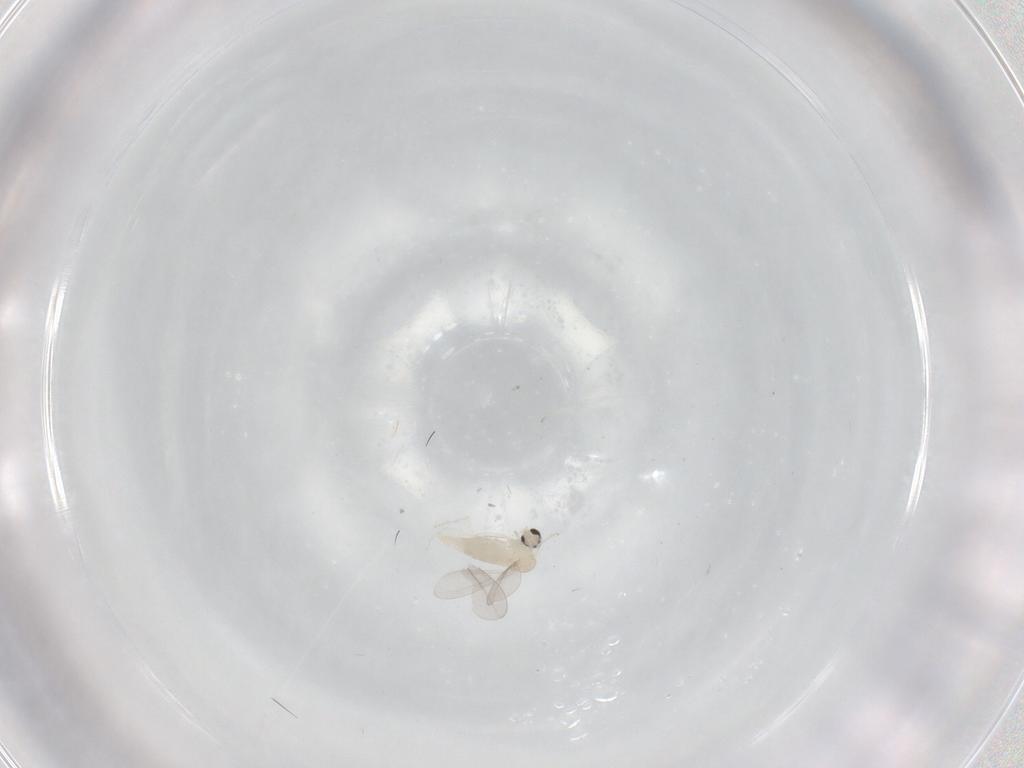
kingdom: Animalia
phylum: Arthropoda
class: Insecta
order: Diptera
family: Cecidomyiidae
